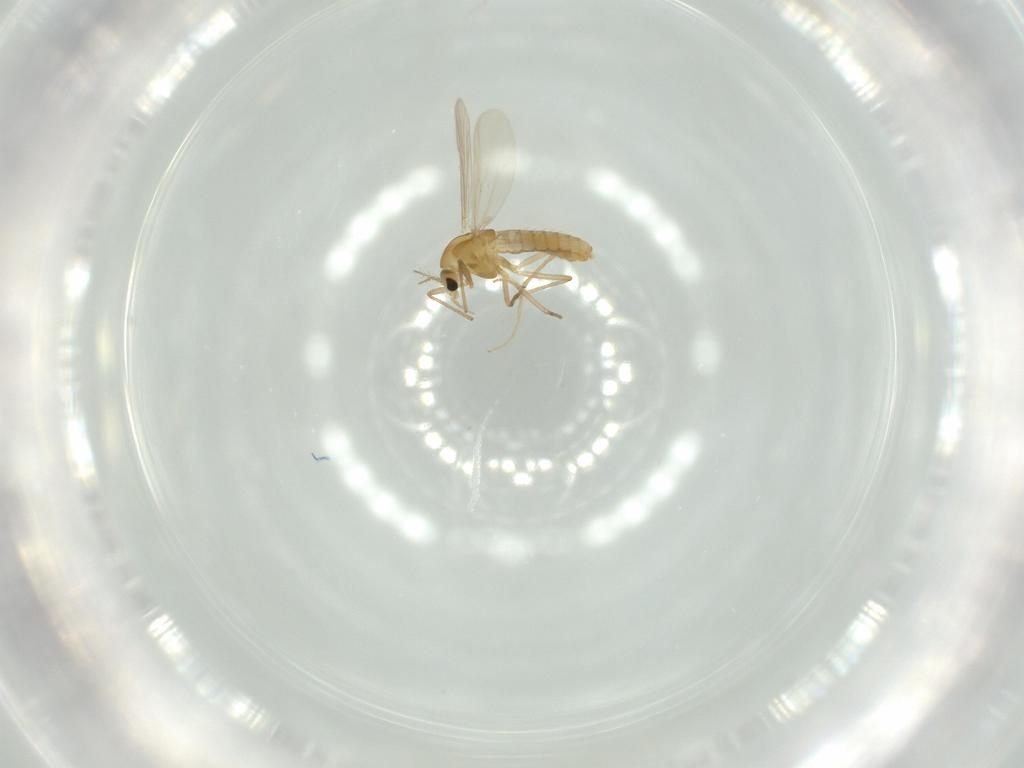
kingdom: Animalia
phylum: Arthropoda
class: Insecta
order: Diptera
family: Chironomidae
